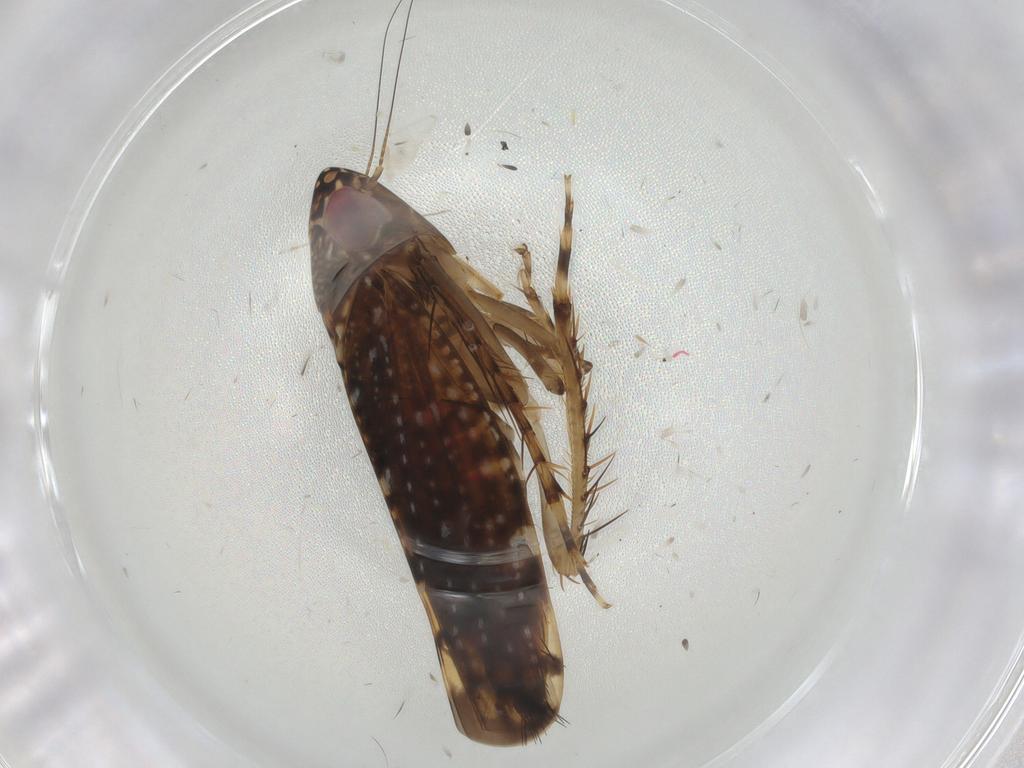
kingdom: Animalia
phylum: Arthropoda
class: Insecta
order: Hemiptera
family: Cicadellidae
